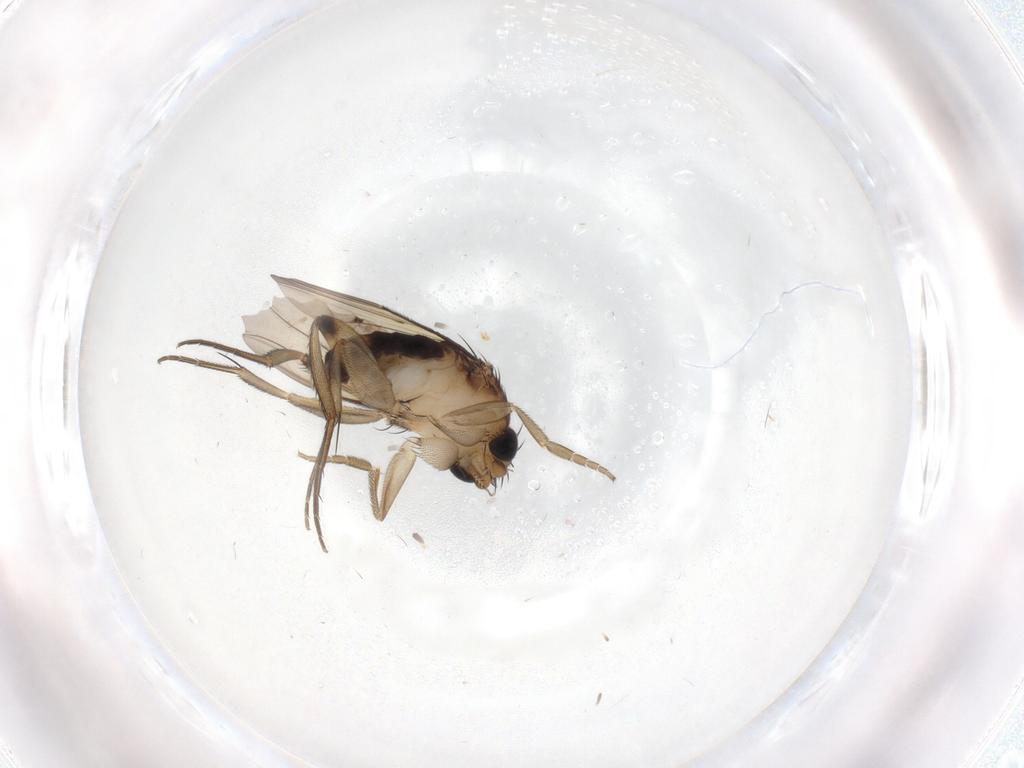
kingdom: Animalia
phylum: Arthropoda
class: Insecta
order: Diptera
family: Phoridae
